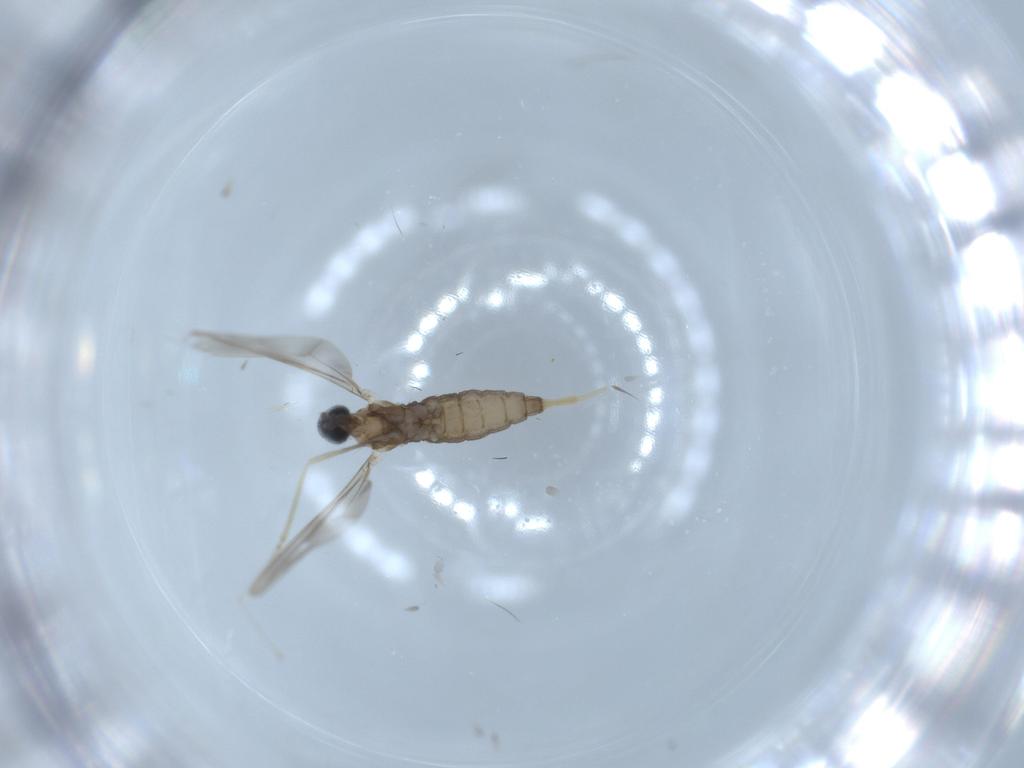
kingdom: Animalia
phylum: Arthropoda
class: Insecta
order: Diptera
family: Cecidomyiidae
